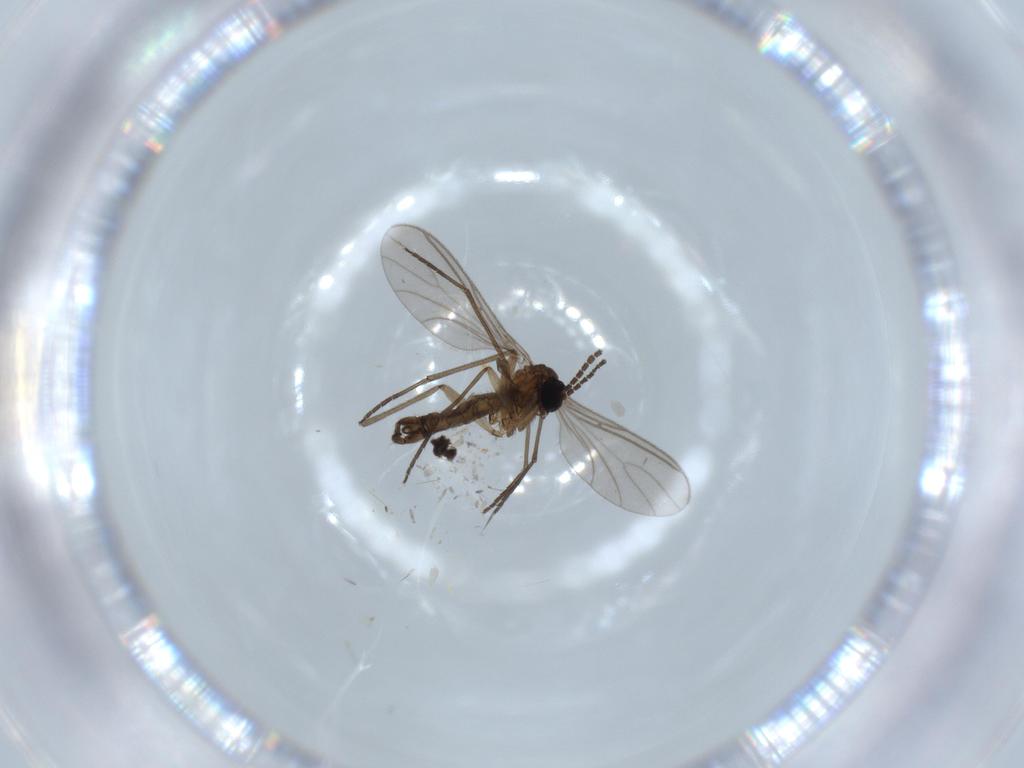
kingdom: Animalia
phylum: Arthropoda
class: Insecta
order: Diptera
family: Sciaridae
